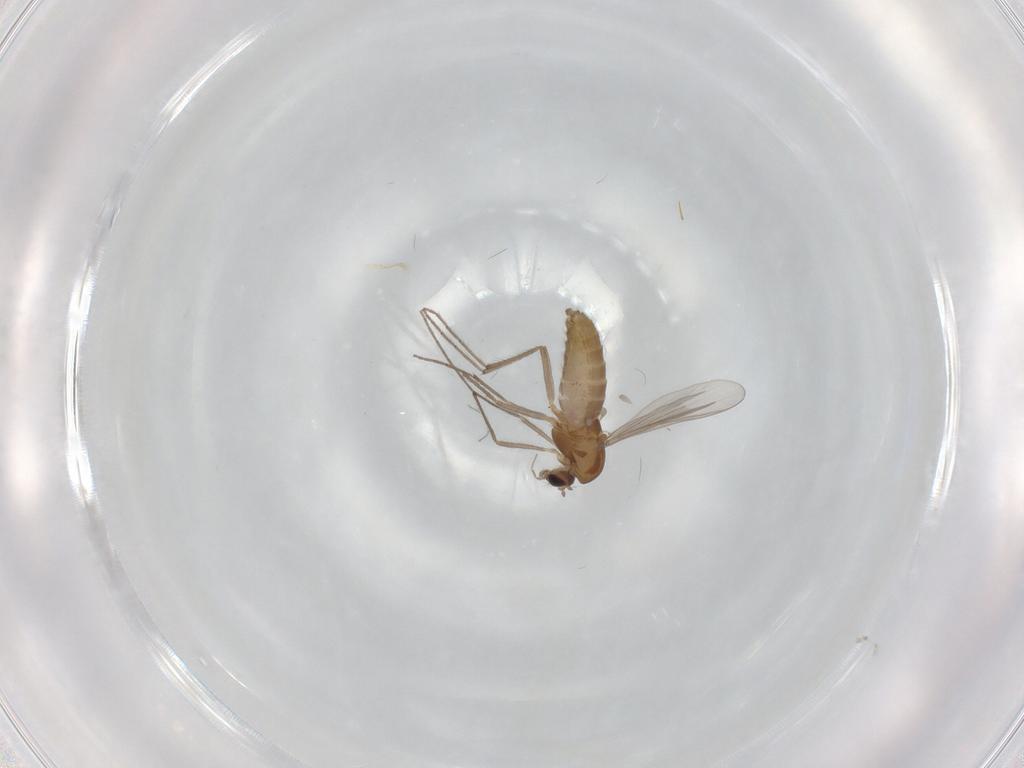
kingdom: Animalia
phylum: Arthropoda
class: Insecta
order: Diptera
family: Chironomidae
